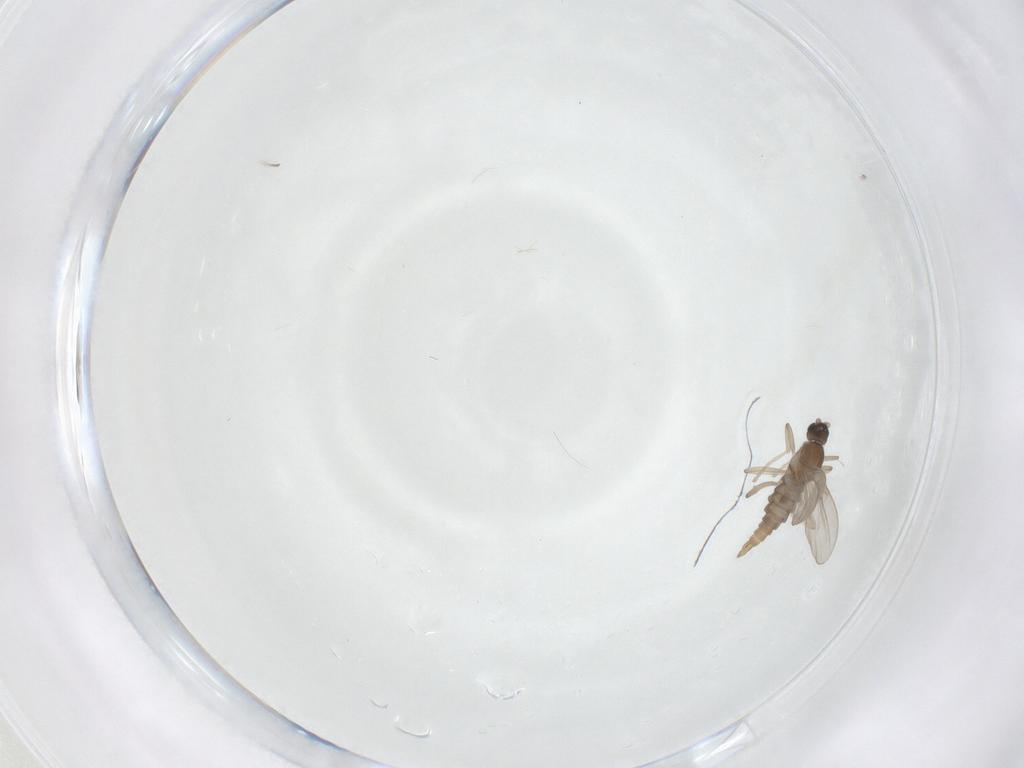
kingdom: Animalia
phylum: Arthropoda
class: Insecta
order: Diptera
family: Cecidomyiidae
